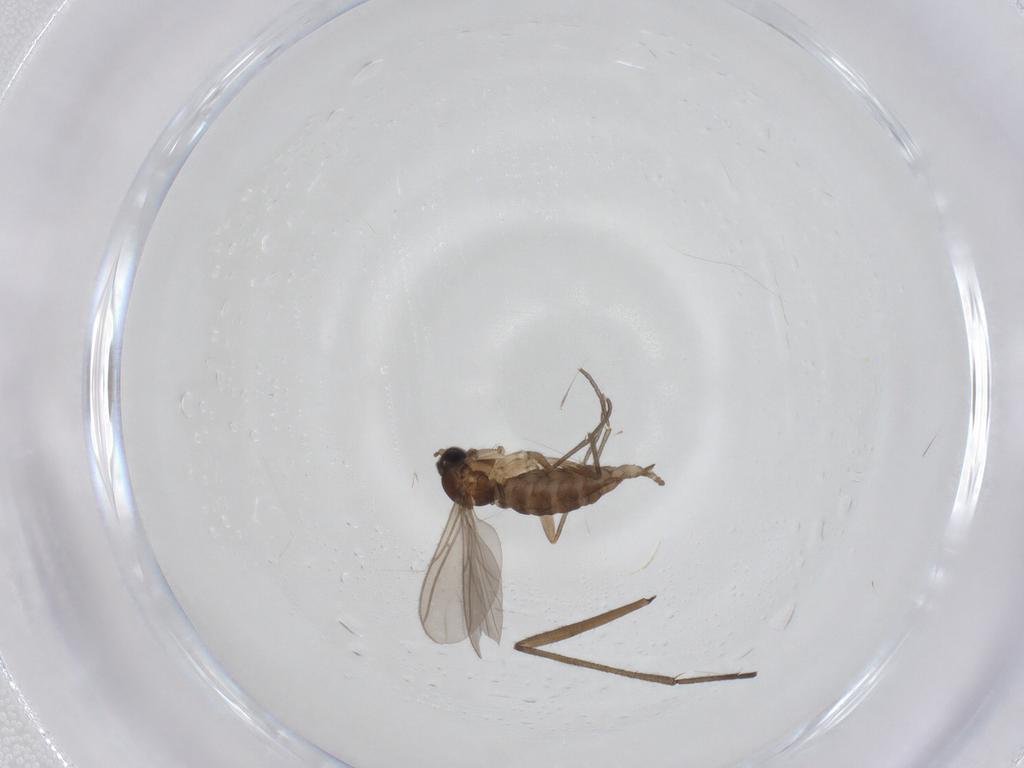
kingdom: Animalia
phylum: Arthropoda
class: Insecta
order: Diptera
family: Sciaridae
